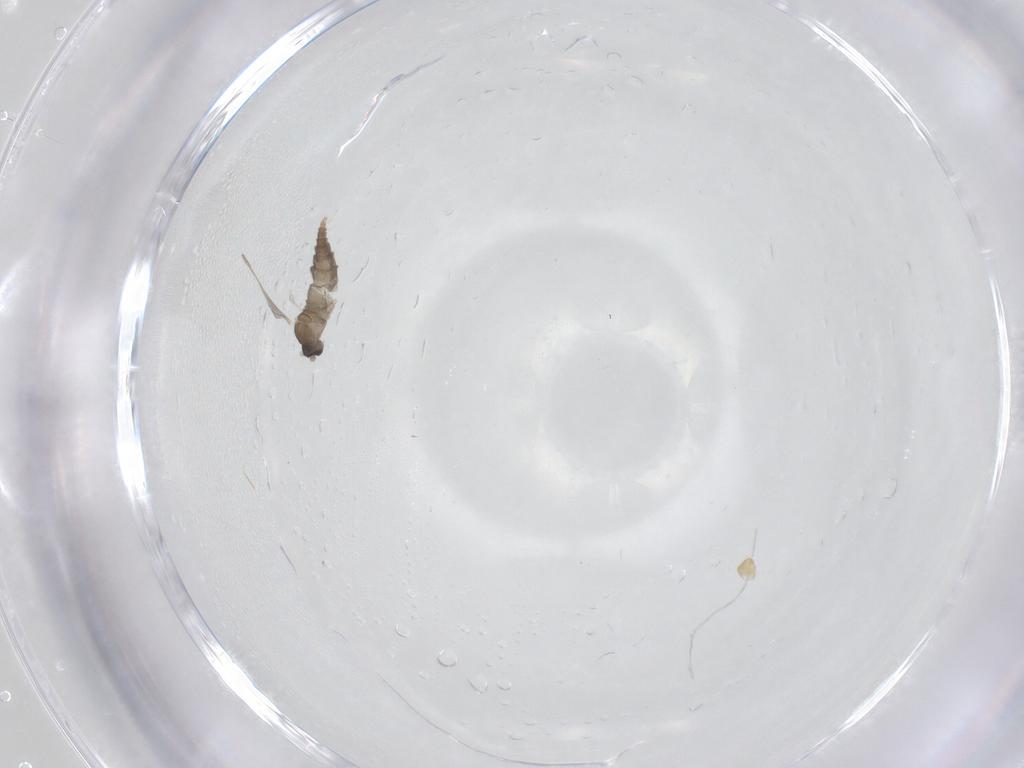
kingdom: Animalia
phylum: Arthropoda
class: Insecta
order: Diptera
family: Cecidomyiidae
